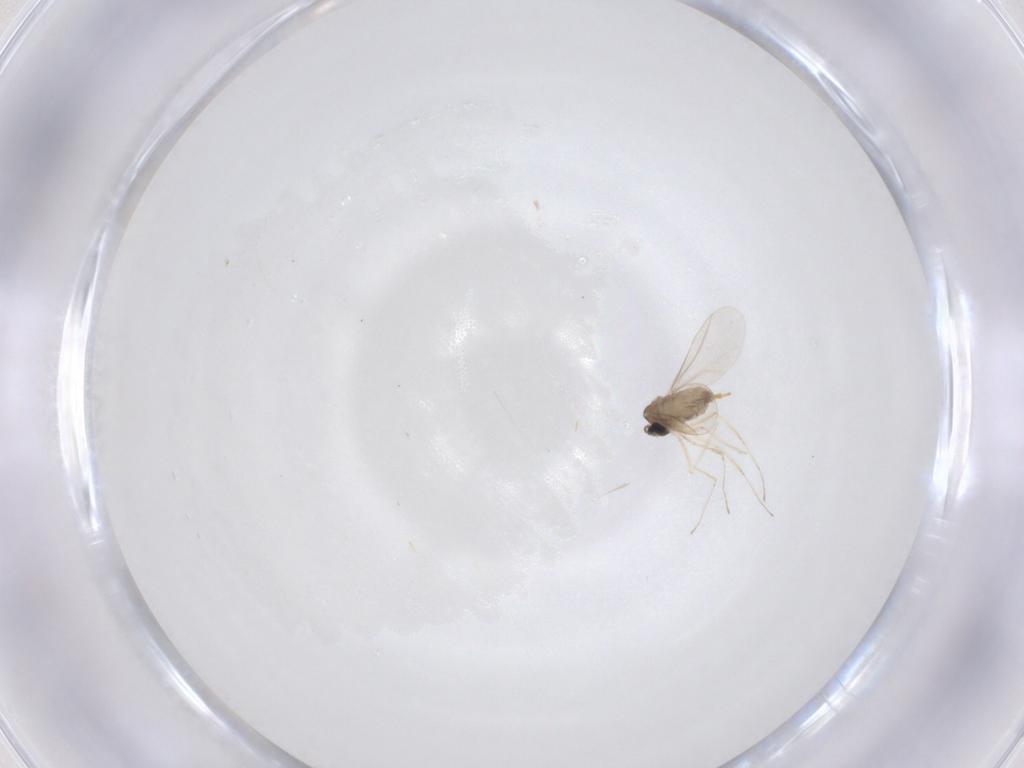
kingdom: Animalia
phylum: Arthropoda
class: Insecta
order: Diptera
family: Cecidomyiidae
